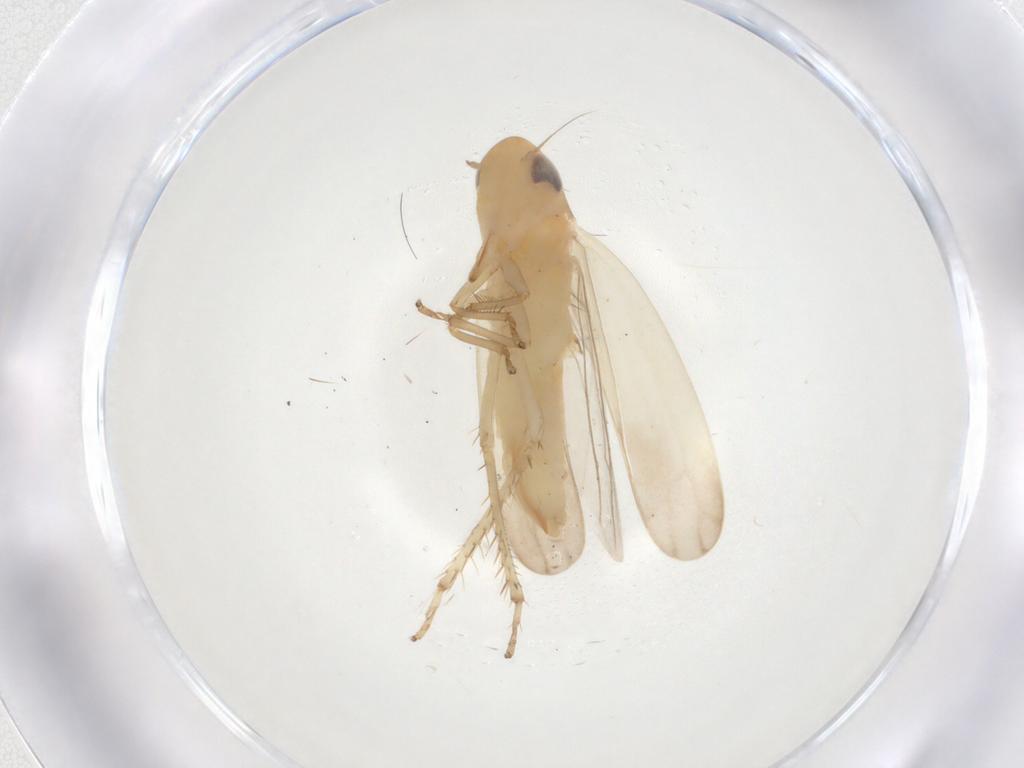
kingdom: Animalia
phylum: Arthropoda
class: Insecta
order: Hemiptera
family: Cicadellidae
